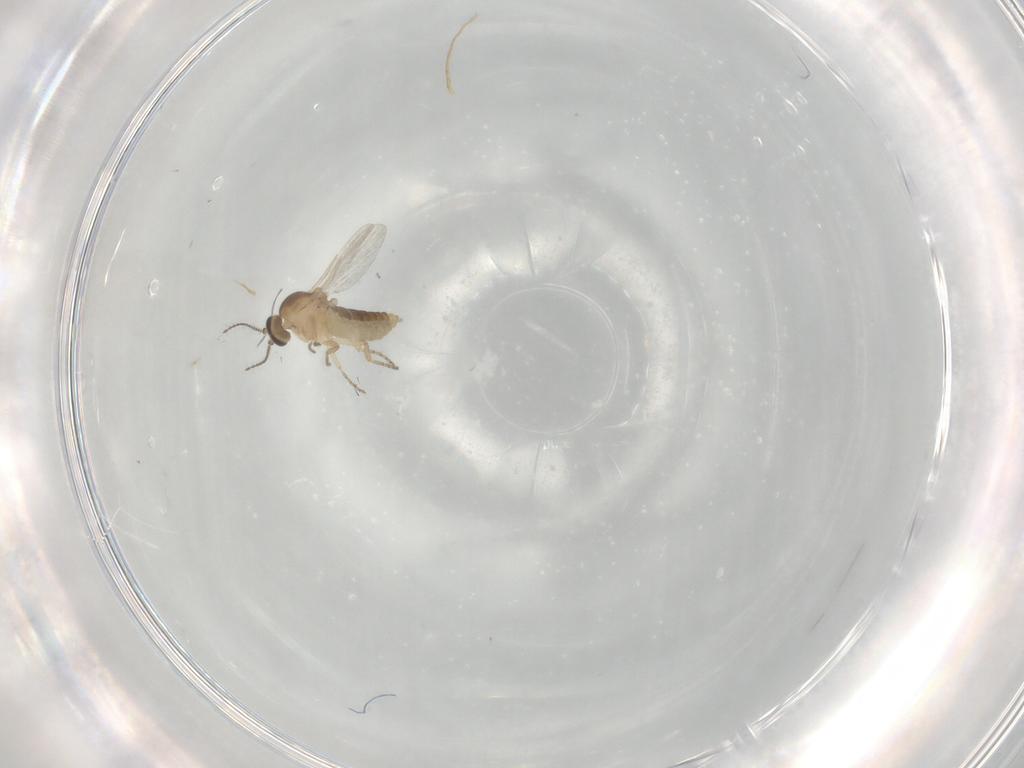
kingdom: Animalia
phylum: Arthropoda
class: Insecta
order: Diptera
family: Ceratopogonidae
